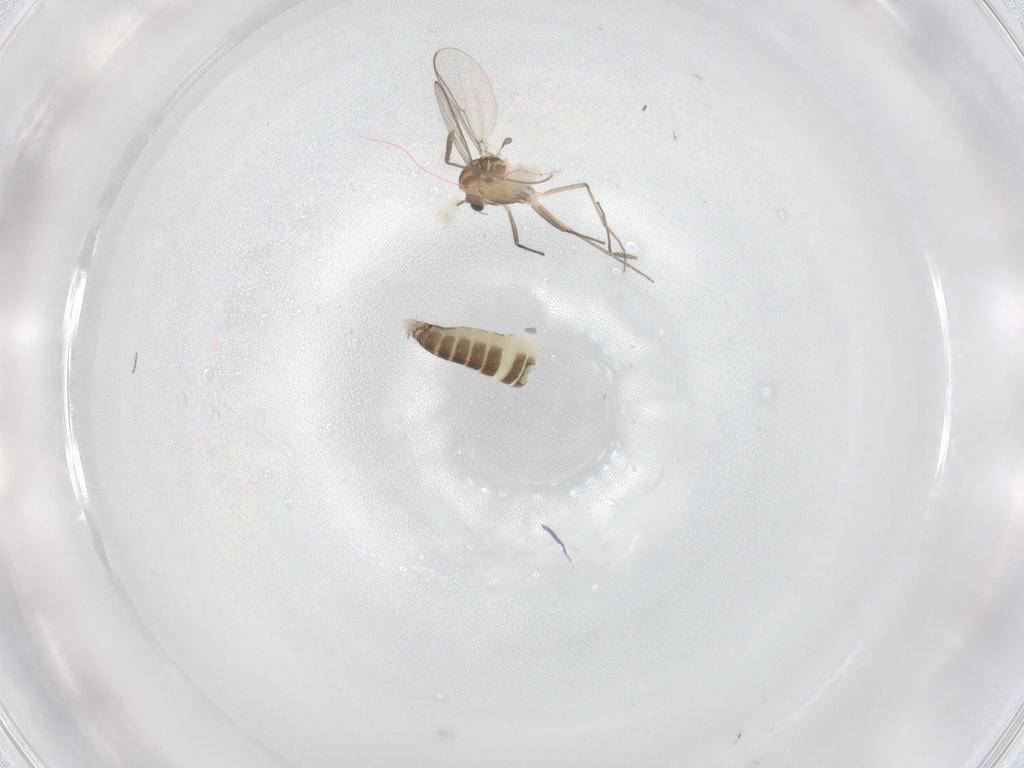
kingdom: Animalia
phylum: Arthropoda
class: Insecta
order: Diptera
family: Chironomidae
